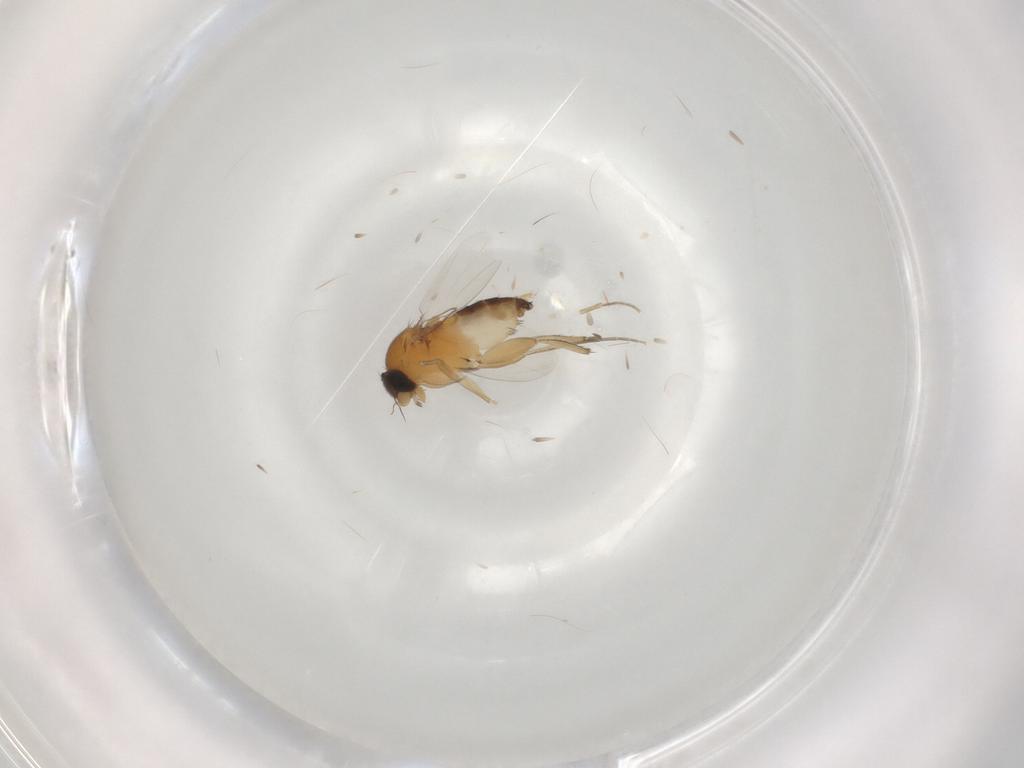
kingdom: Animalia
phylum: Arthropoda
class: Insecta
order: Diptera
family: Phoridae
